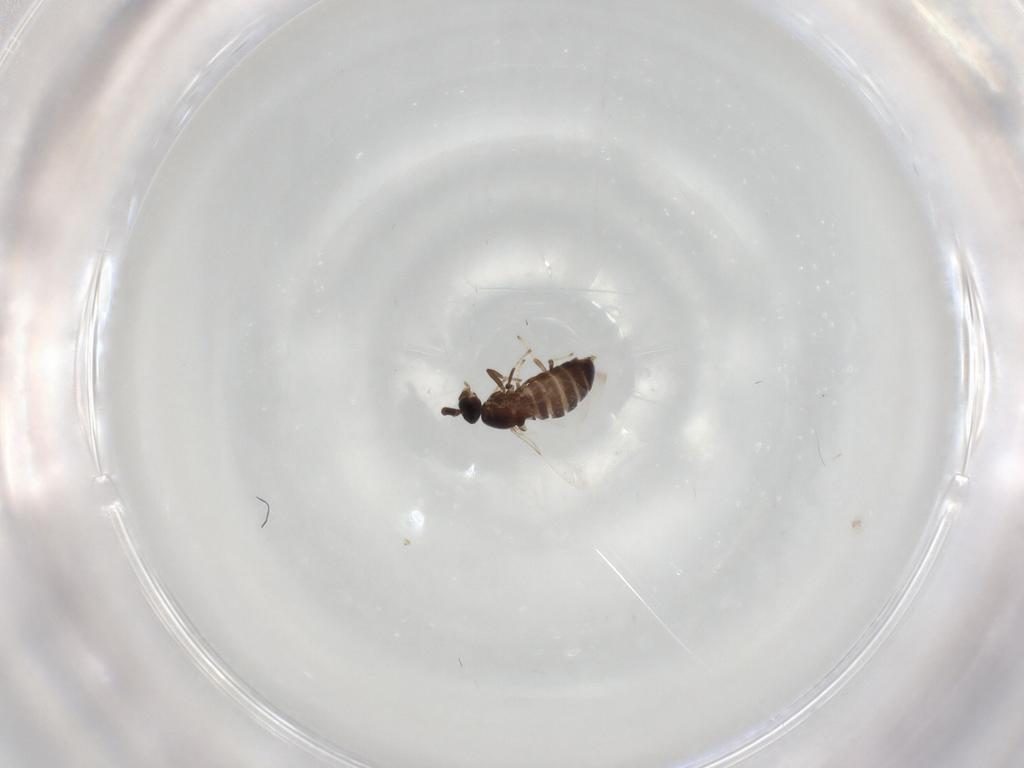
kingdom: Animalia
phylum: Arthropoda
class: Insecta
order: Diptera
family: Scatopsidae
